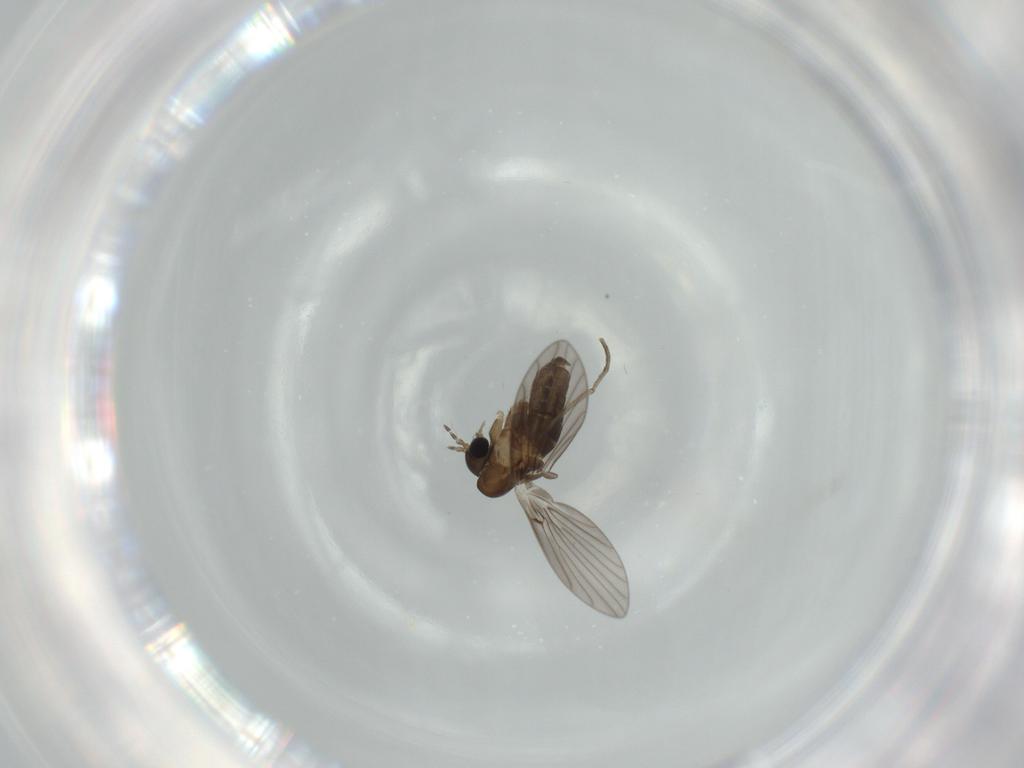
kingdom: Animalia
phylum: Arthropoda
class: Insecta
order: Diptera
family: Psychodidae
